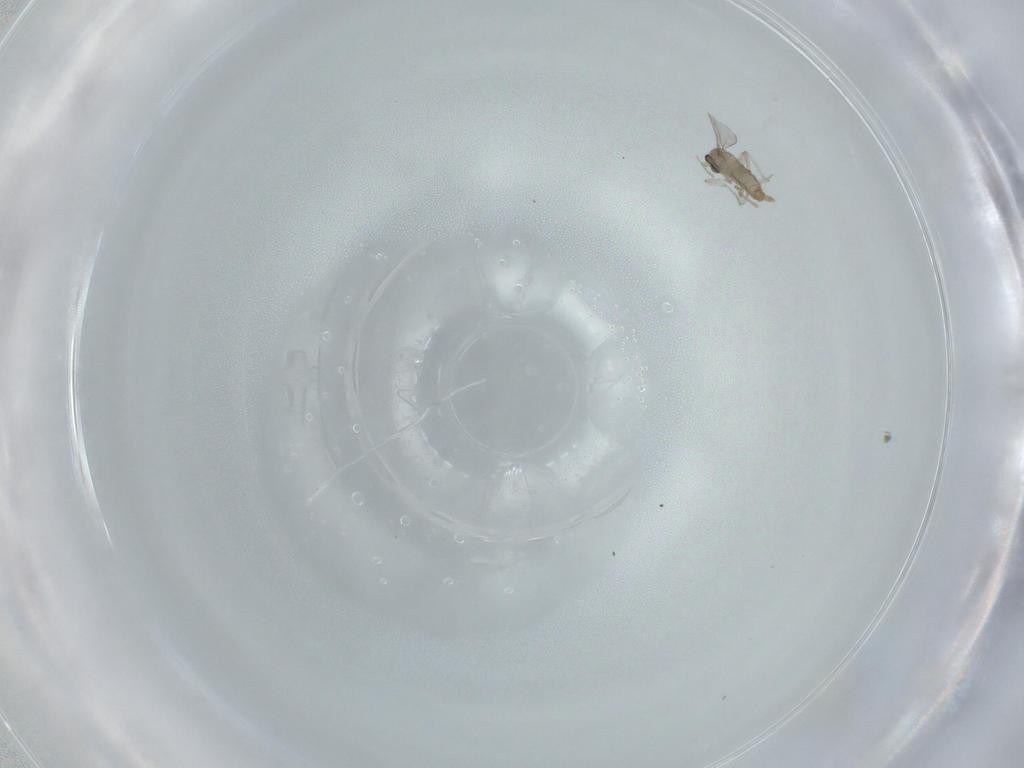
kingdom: Animalia
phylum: Arthropoda
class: Insecta
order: Diptera
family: Cecidomyiidae
